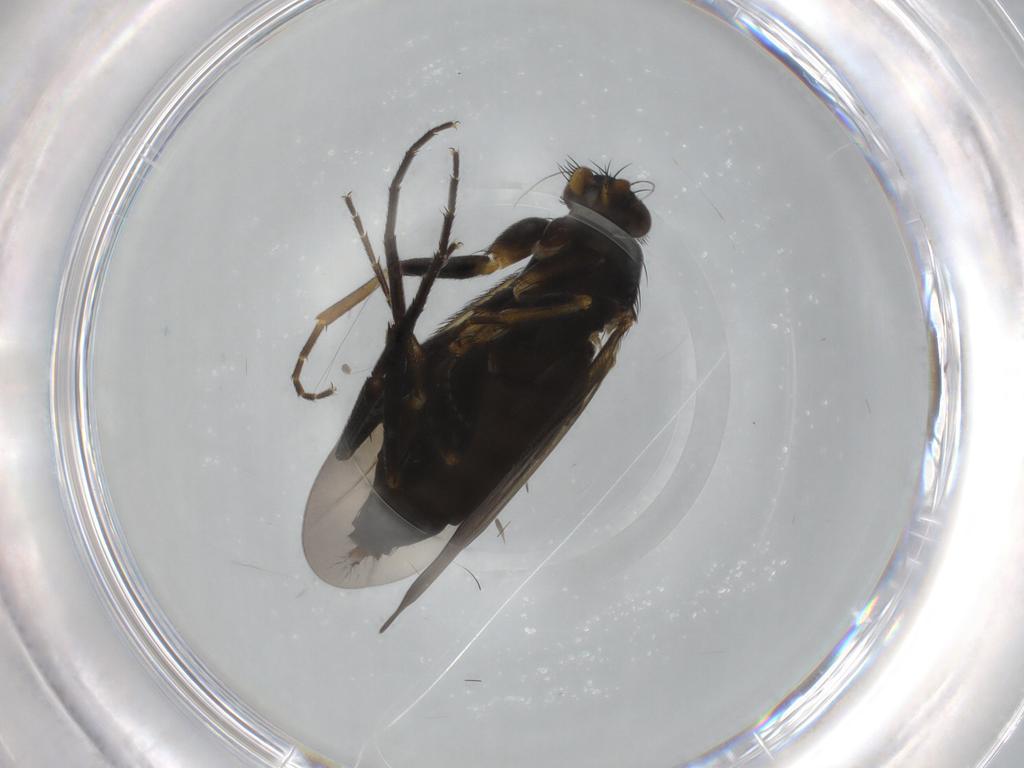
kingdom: Animalia
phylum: Arthropoda
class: Insecta
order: Diptera
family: Phoridae
